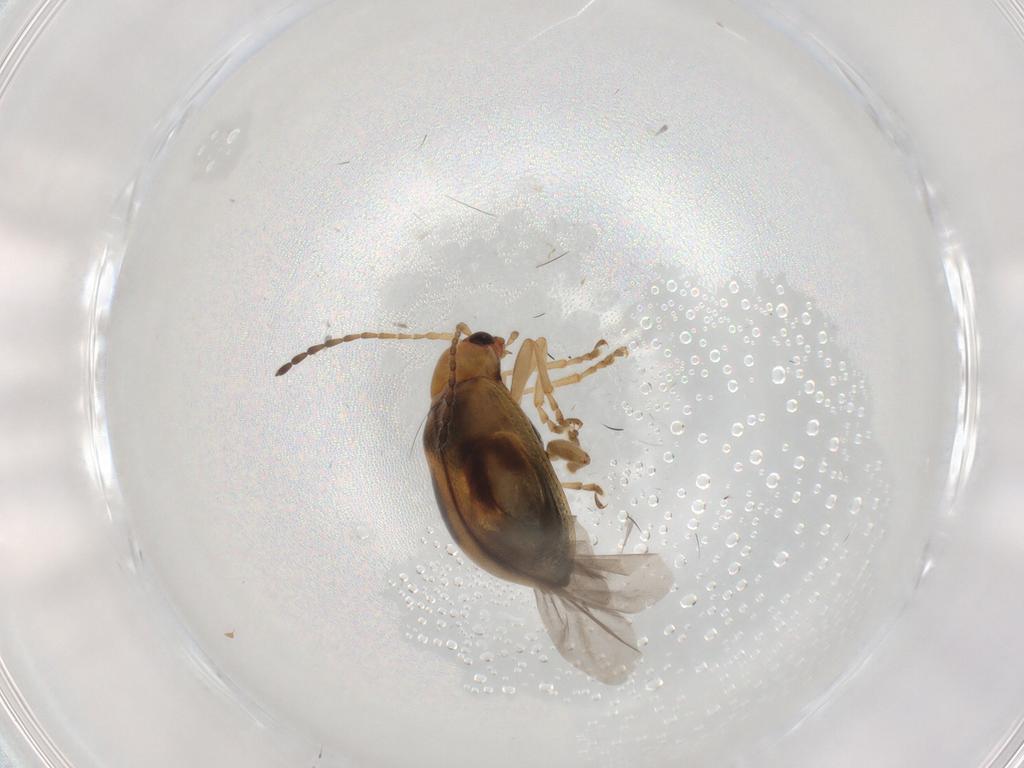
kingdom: Animalia
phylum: Arthropoda
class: Insecta
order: Coleoptera
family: Chrysomelidae
